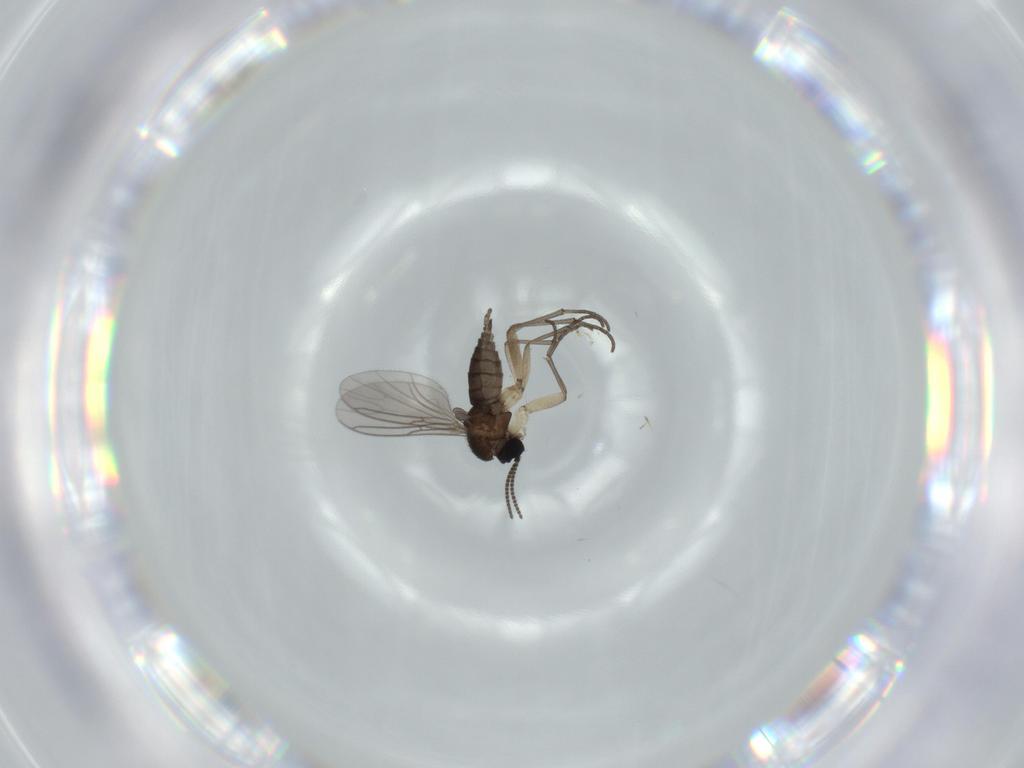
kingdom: Animalia
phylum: Arthropoda
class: Insecta
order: Diptera
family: Sciaridae
